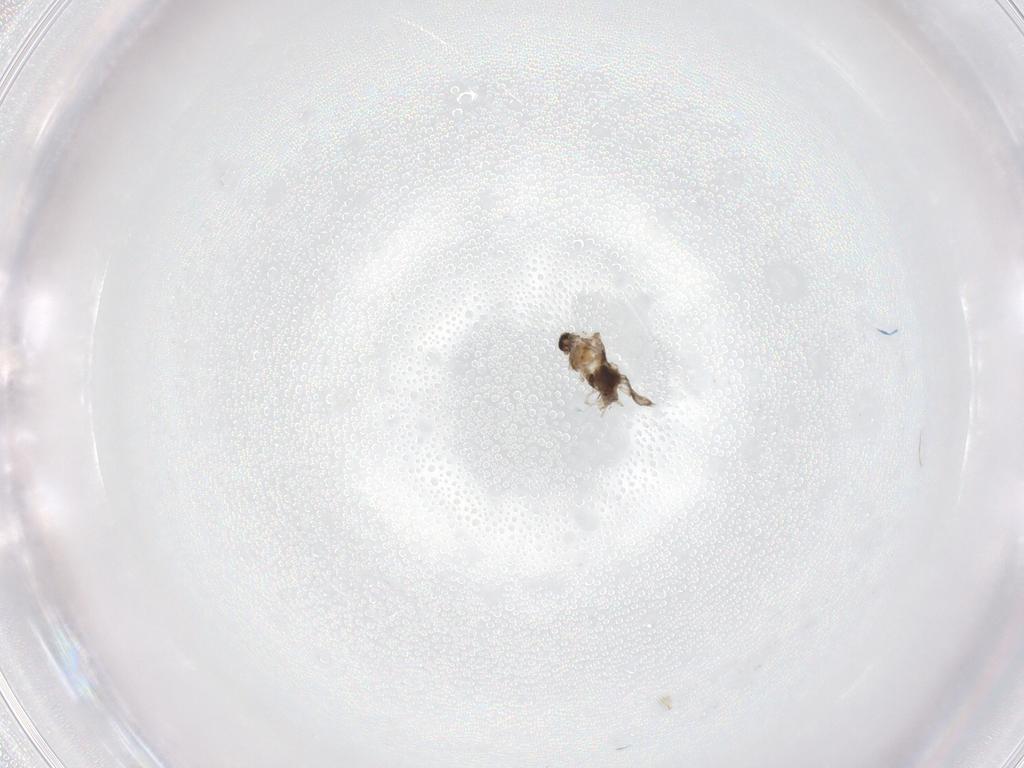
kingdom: Animalia
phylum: Arthropoda
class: Insecta
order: Diptera
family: Cecidomyiidae
